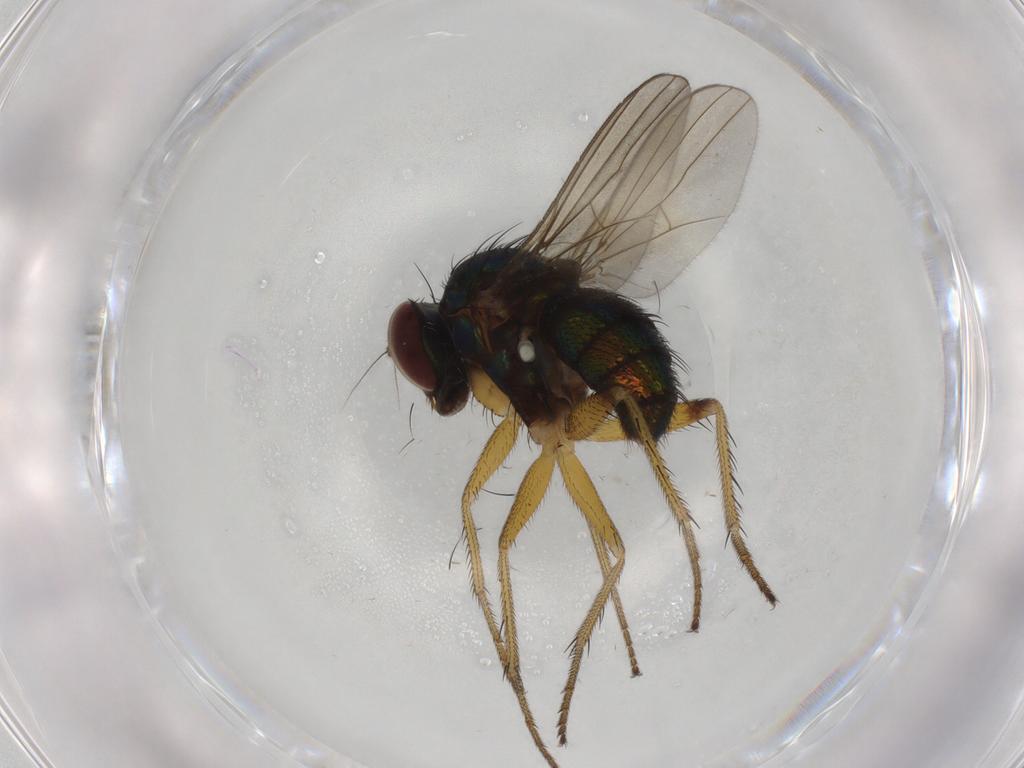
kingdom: Animalia
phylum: Arthropoda
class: Insecta
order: Diptera
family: Dolichopodidae
